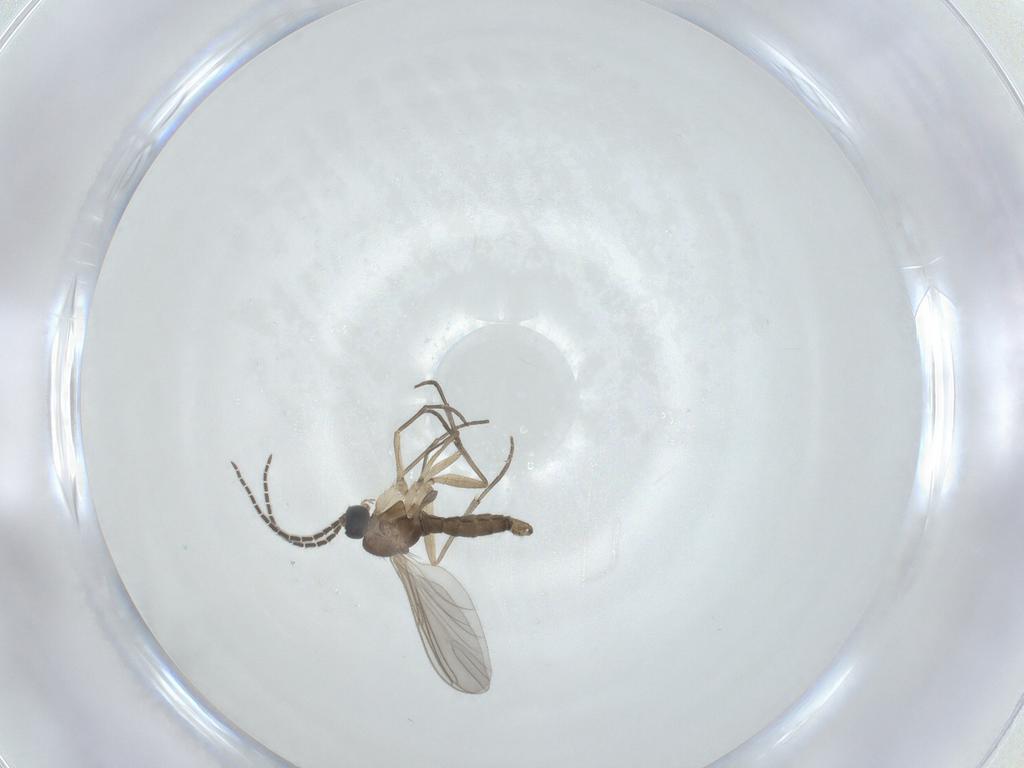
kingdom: Animalia
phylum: Arthropoda
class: Insecta
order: Diptera
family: Sciaridae
